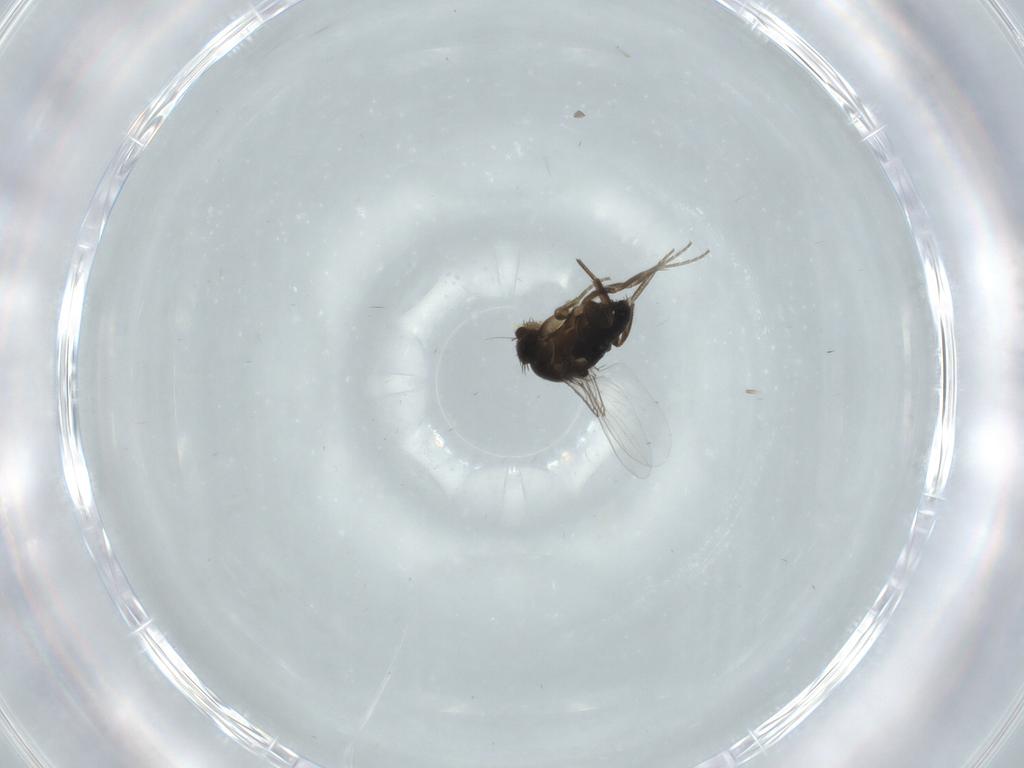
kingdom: Animalia
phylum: Arthropoda
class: Insecta
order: Diptera
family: Phoridae
